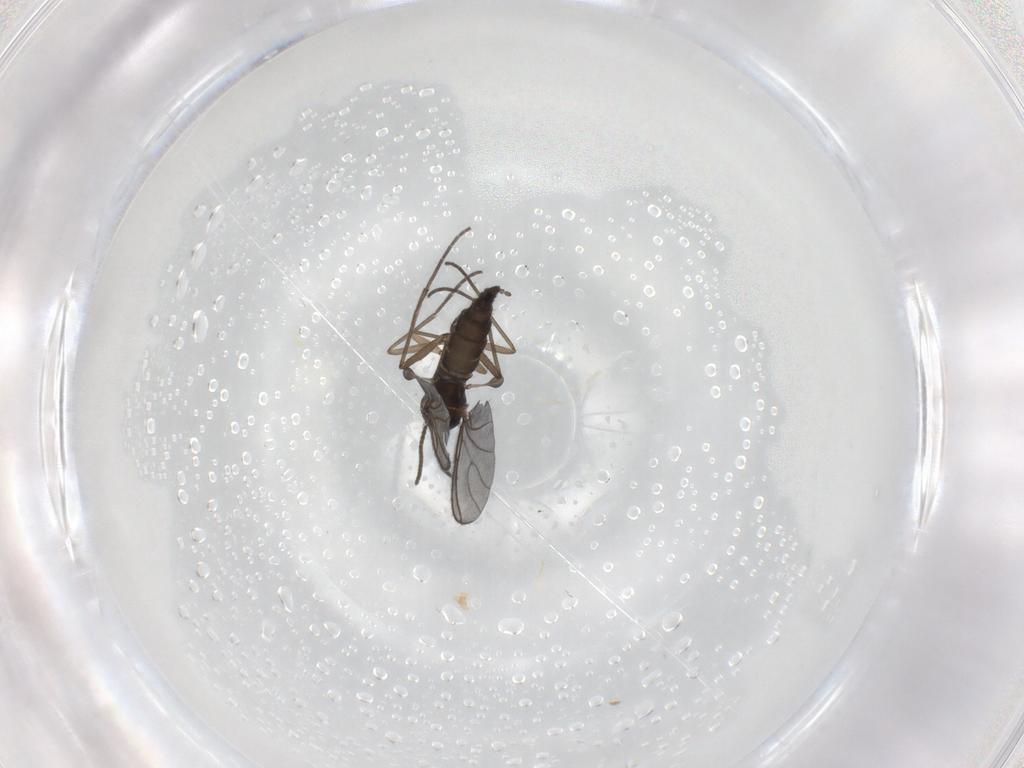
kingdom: Animalia
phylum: Arthropoda
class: Insecta
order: Diptera
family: Sciaridae
